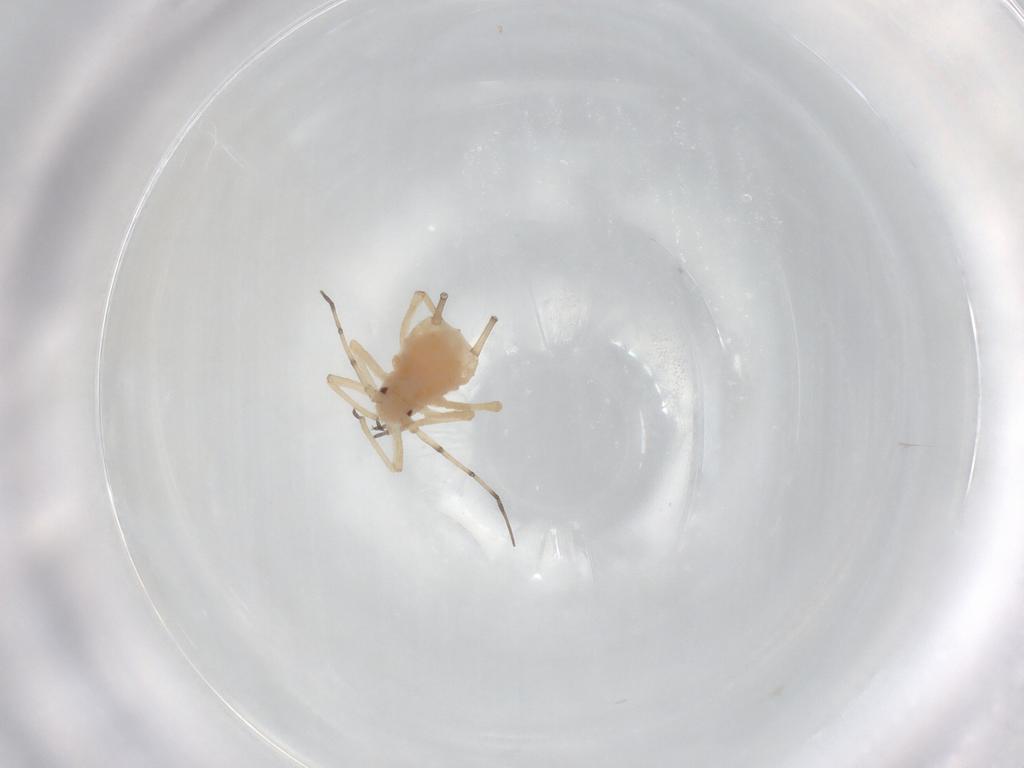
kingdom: Animalia
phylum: Arthropoda
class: Insecta
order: Hemiptera
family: Aphididae
